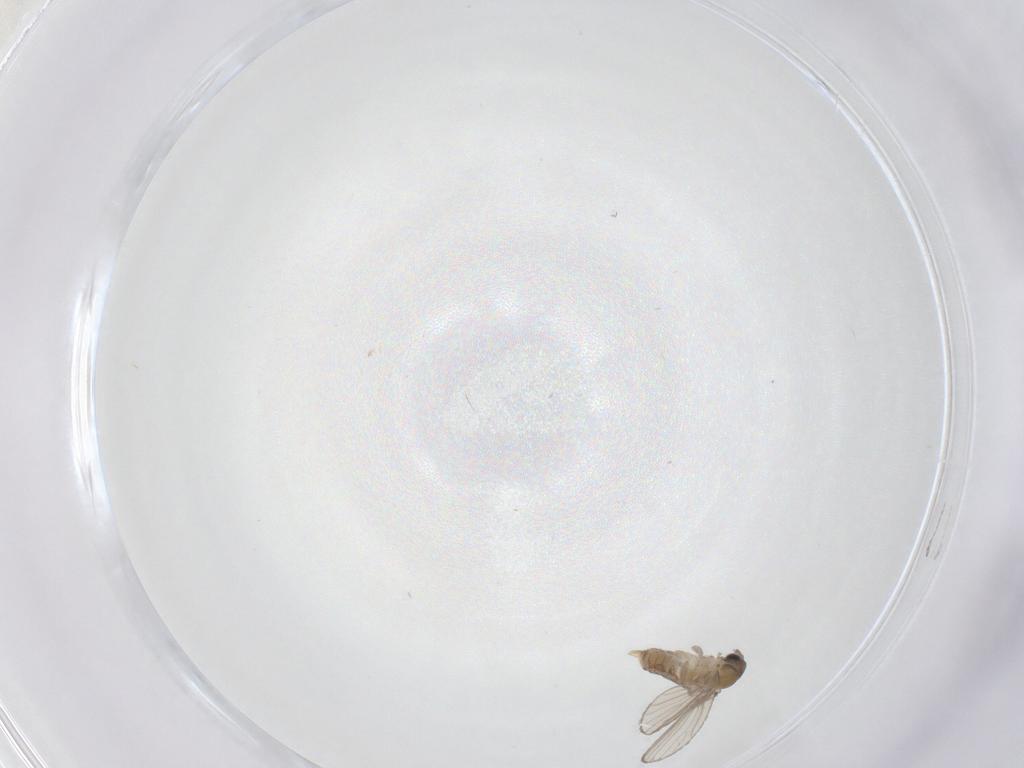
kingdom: Animalia
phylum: Arthropoda
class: Insecta
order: Diptera
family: Psychodidae
